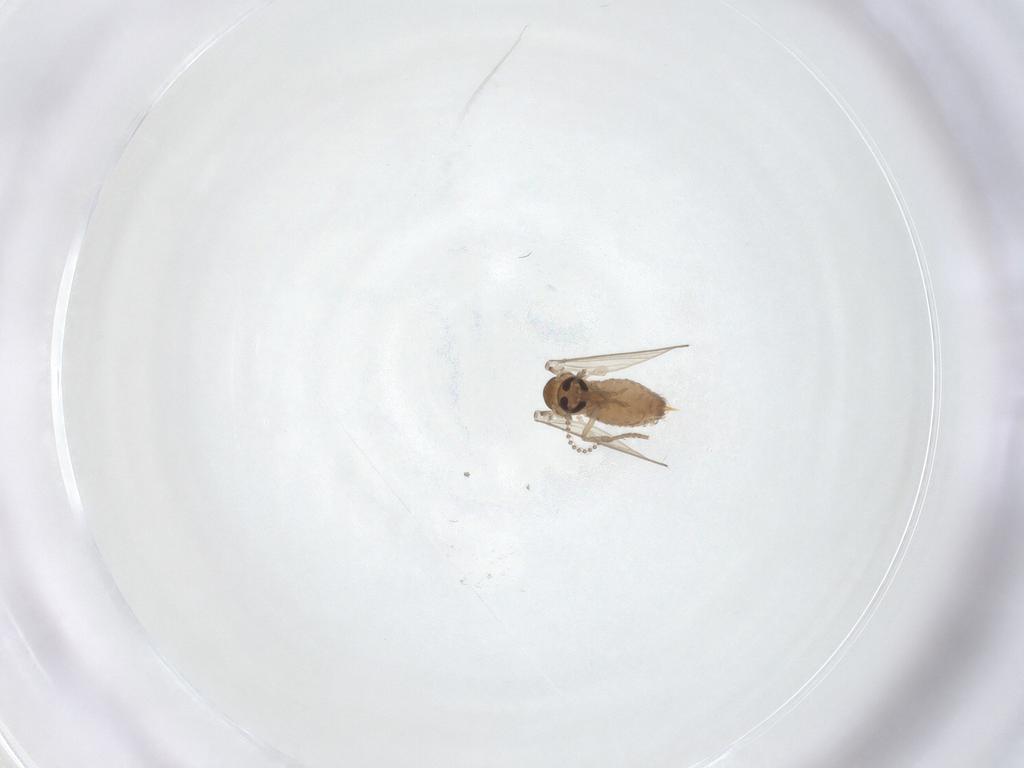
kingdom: Animalia
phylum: Arthropoda
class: Insecta
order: Diptera
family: Psychodidae
